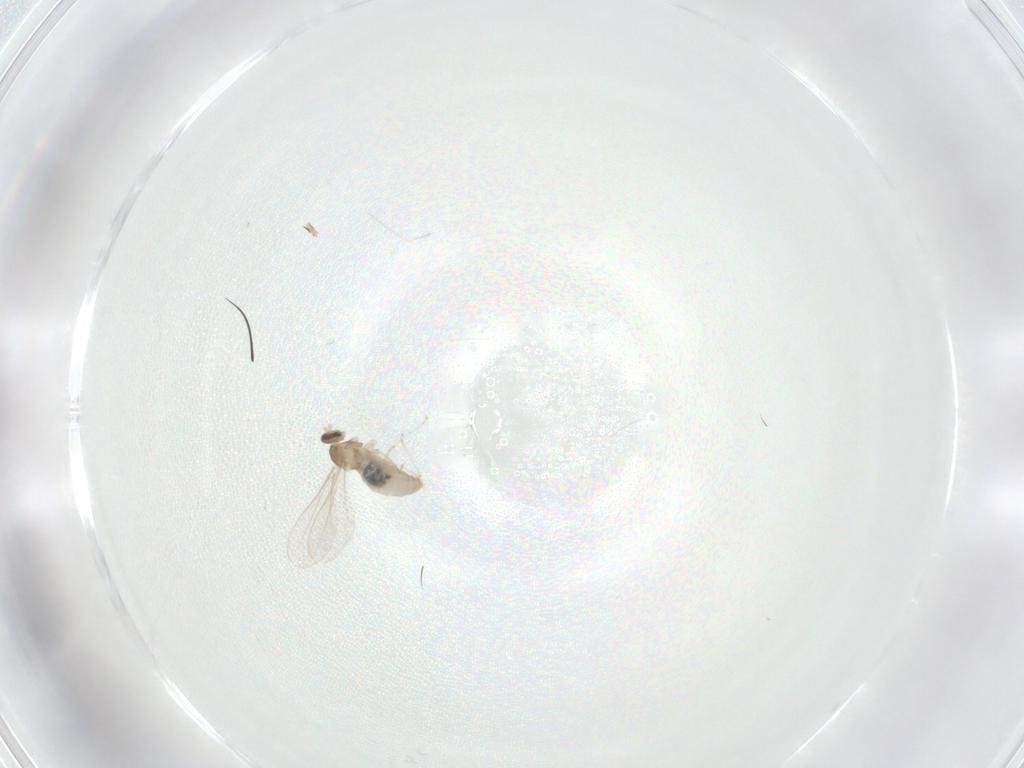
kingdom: Animalia
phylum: Arthropoda
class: Insecta
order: Diptera
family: Cecidomyiidae
